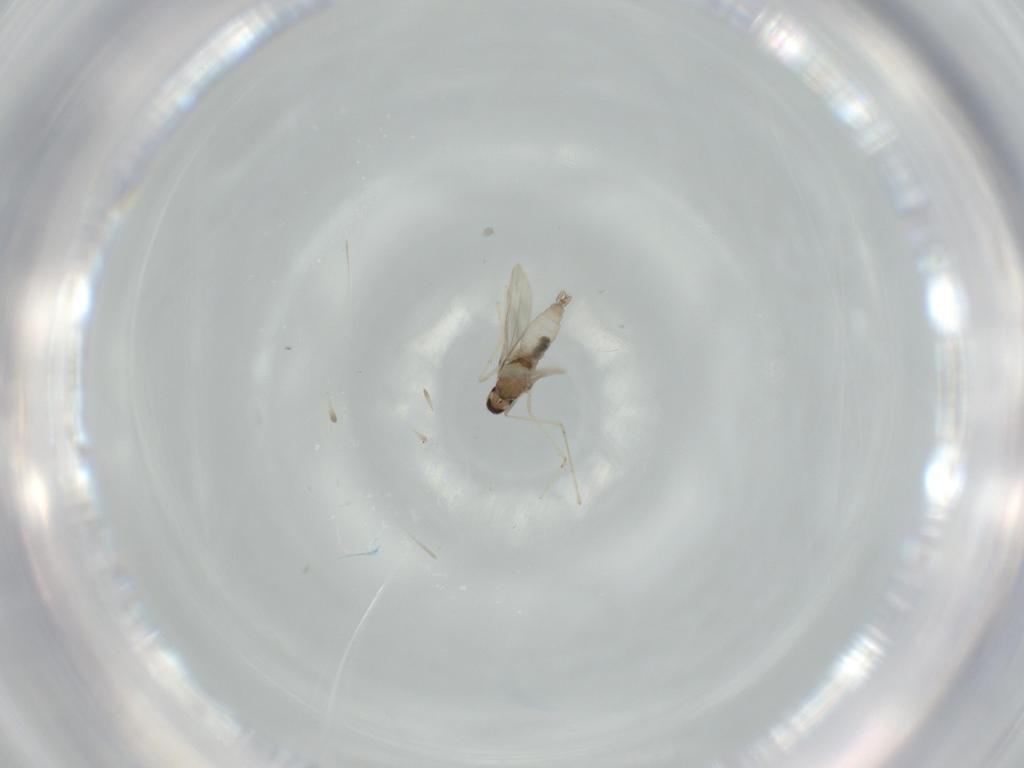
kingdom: Animalia
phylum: Arthropoda
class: Insecta
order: Diptera
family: Cecidomyiidae
